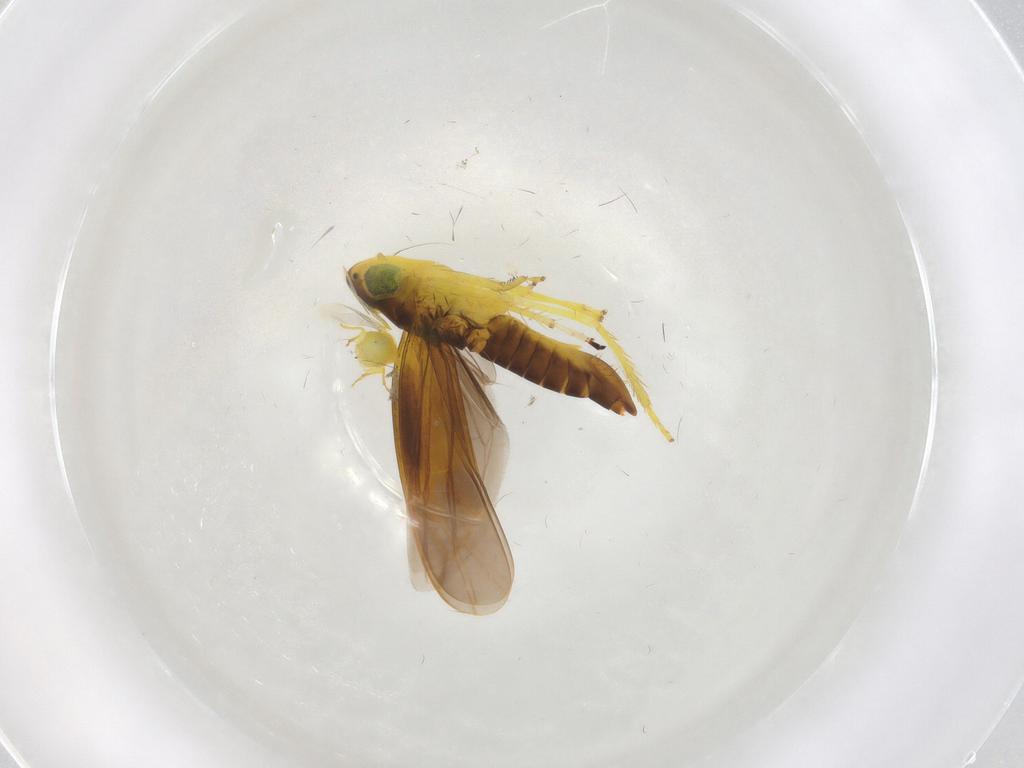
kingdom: Animalia
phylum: Arthropoda
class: Insecta
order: Hemiptera
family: Cicadellidae
